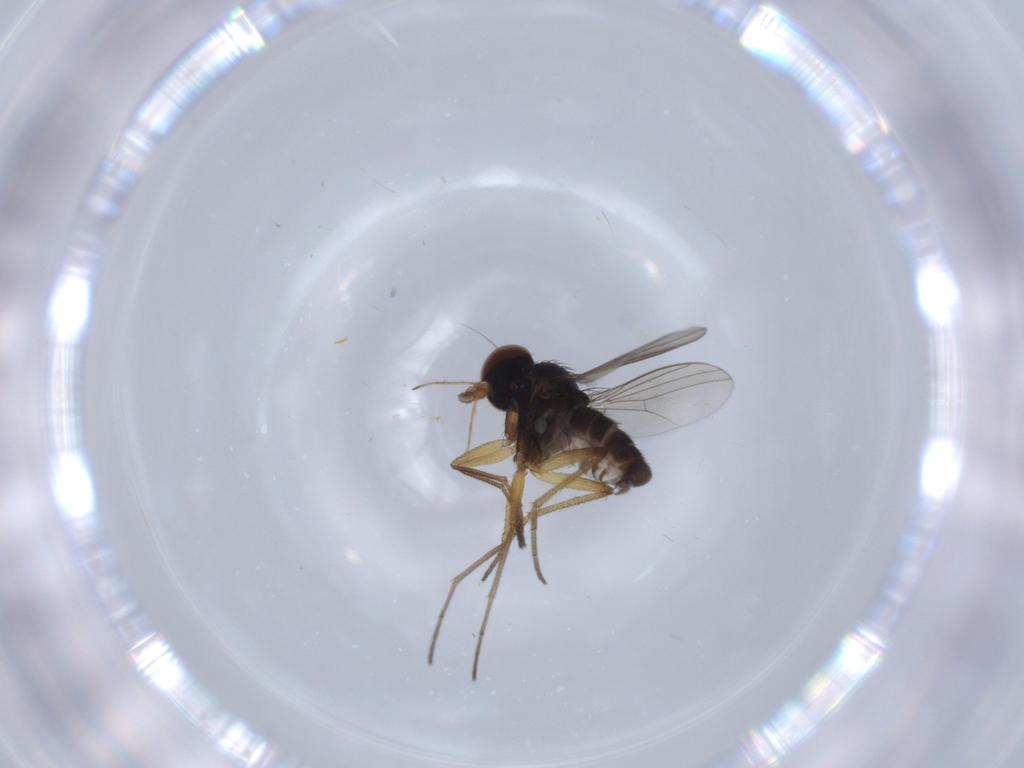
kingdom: Animalia
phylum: Arthropoda
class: Insecta
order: Diptera
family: Dolichopodidae
